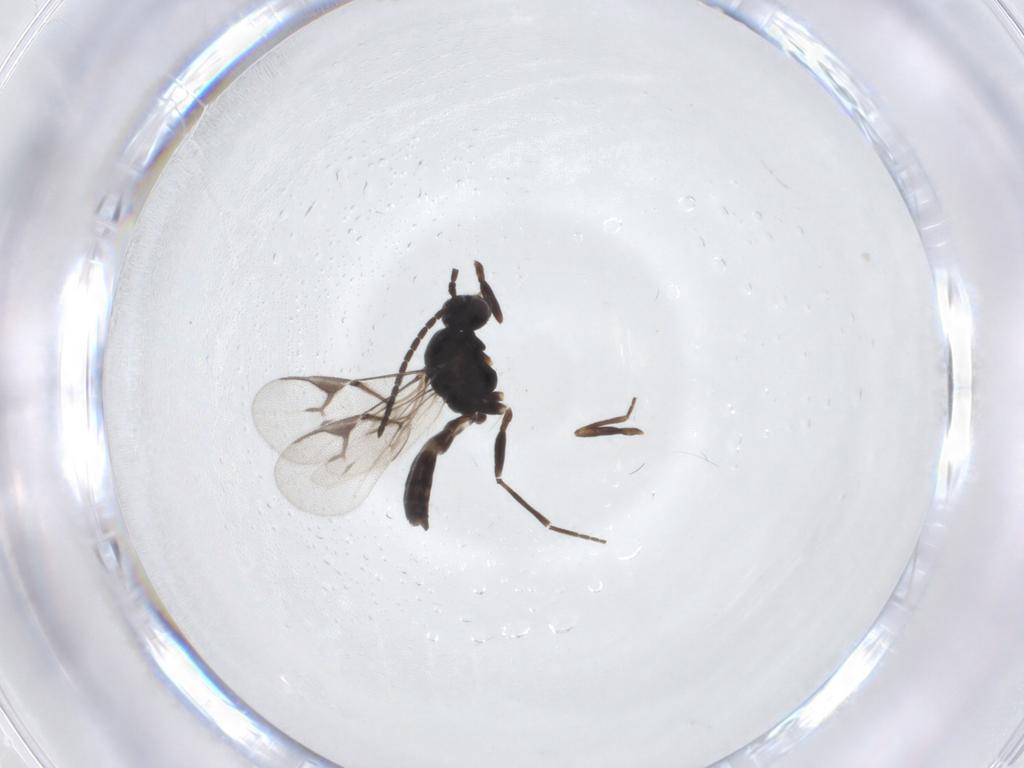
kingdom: Animalia
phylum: Arthropoda
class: Insecta
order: Hymenoptera
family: Braconidae
